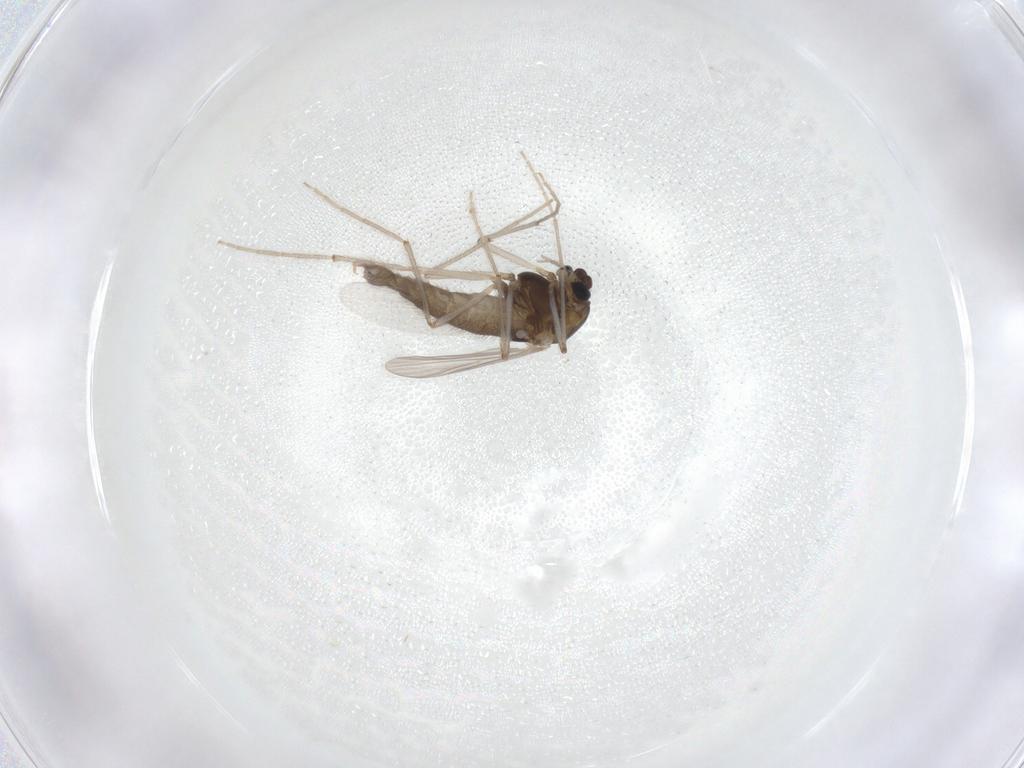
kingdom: Animalia
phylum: Arthropoda
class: Insecta
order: Diptera
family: Chironomidae
